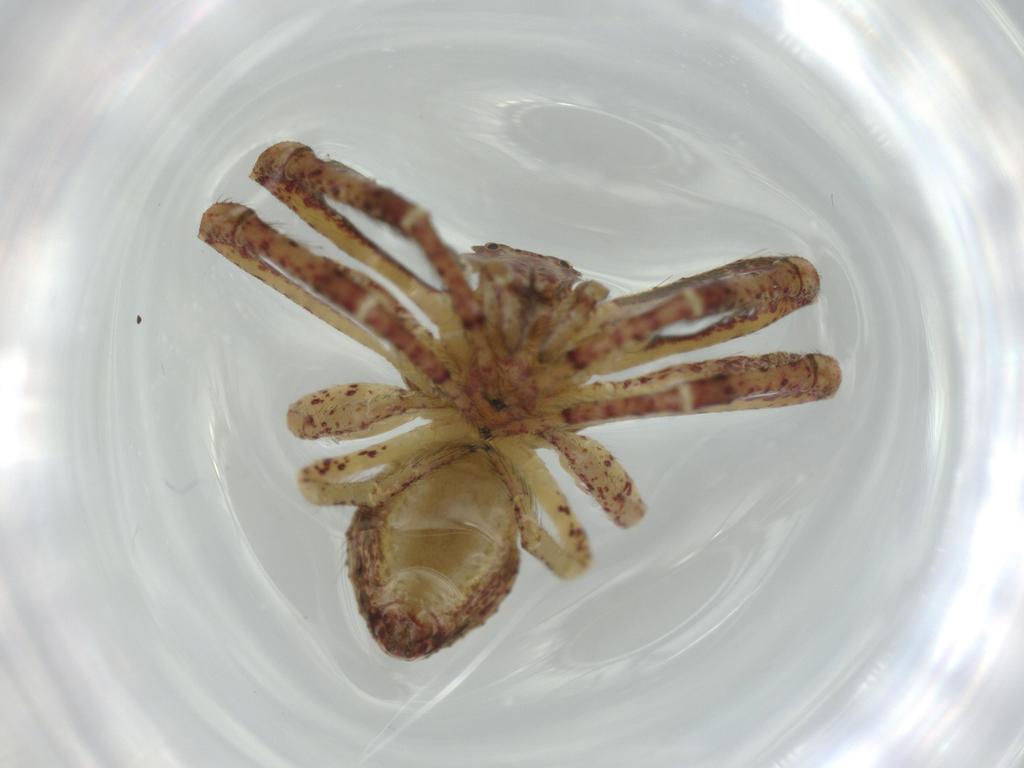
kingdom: Animalia
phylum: Arthropoda
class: Arachnida
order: Araneae
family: Thomisidae
